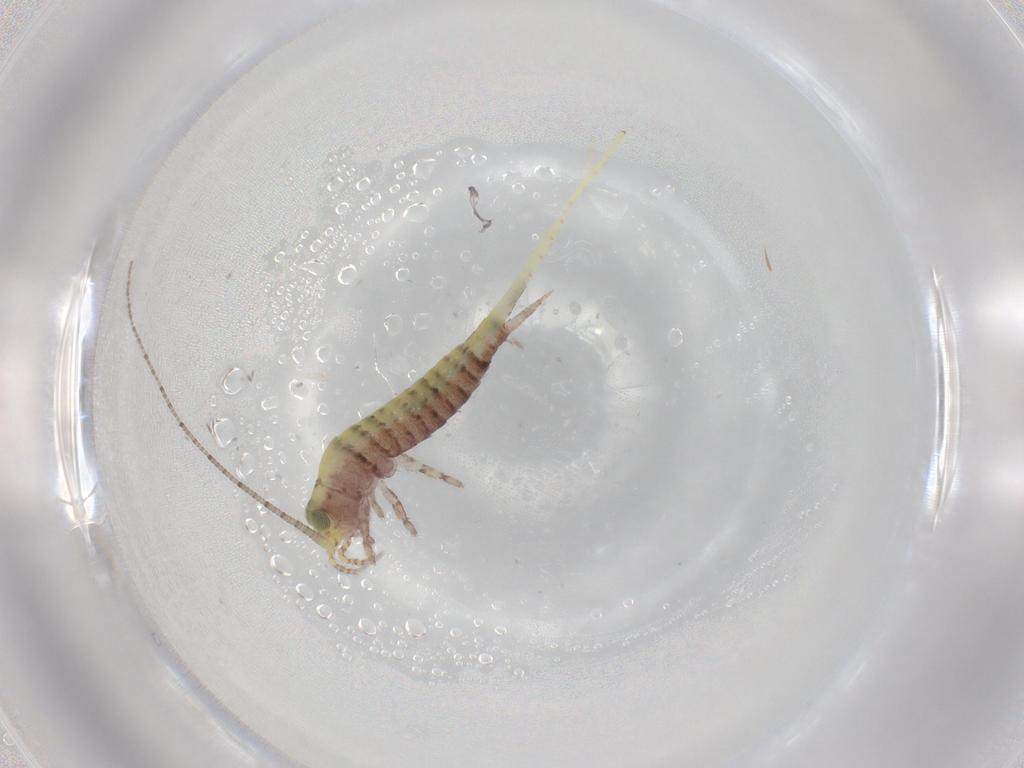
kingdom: Animalia
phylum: Arthropoda
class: Insecta
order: Archaeognatha
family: Machilidae
